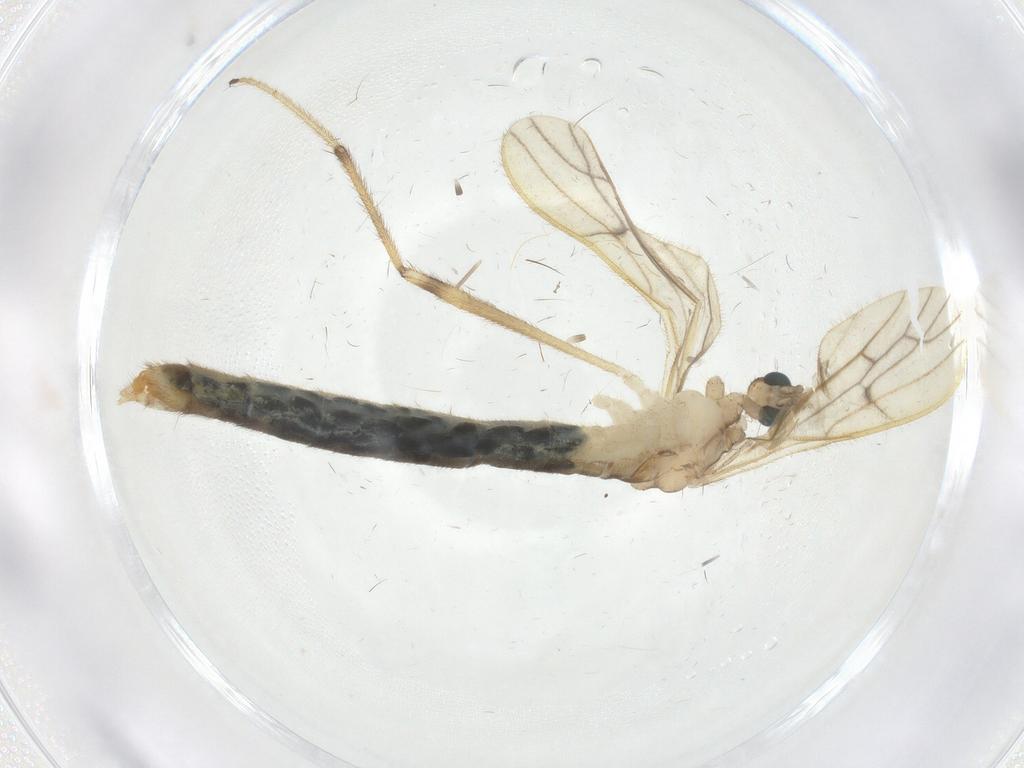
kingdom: Animalia
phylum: Arthropoda
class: Insecta
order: Diptera
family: Limoniidae
